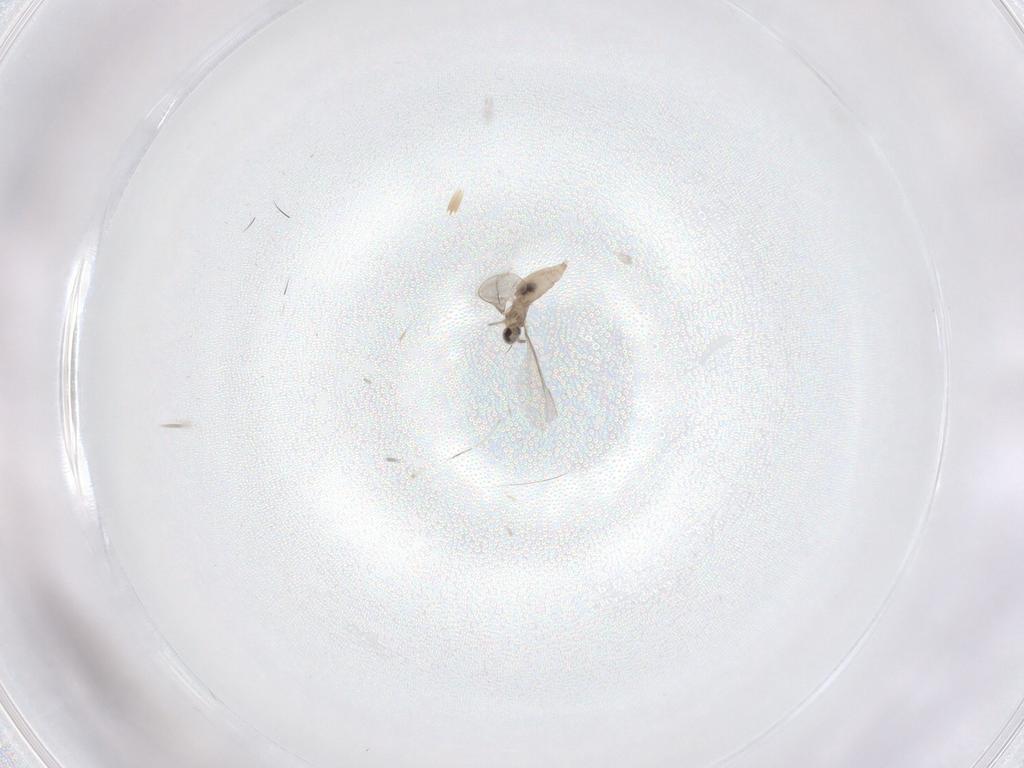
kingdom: Animalia
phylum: Arthropoda
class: Insecta
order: Diptera
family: Cecidomyiidae
